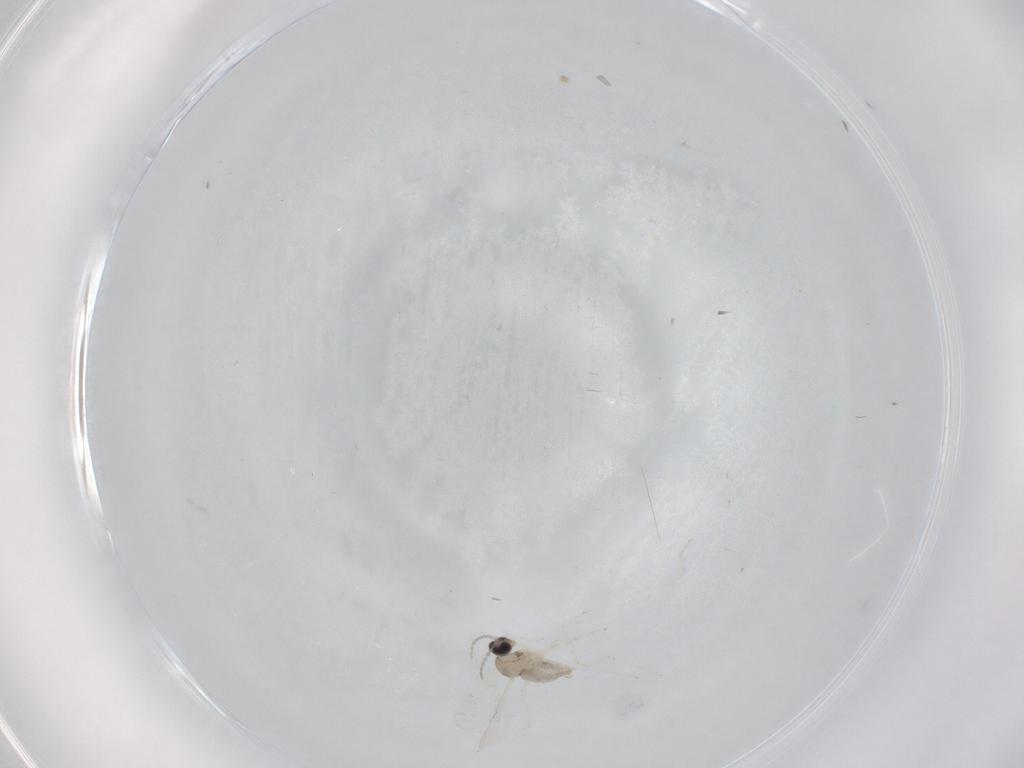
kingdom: Animalia
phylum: Arthropoda
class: Insecta
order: Diptera
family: Cecidomyiidae
